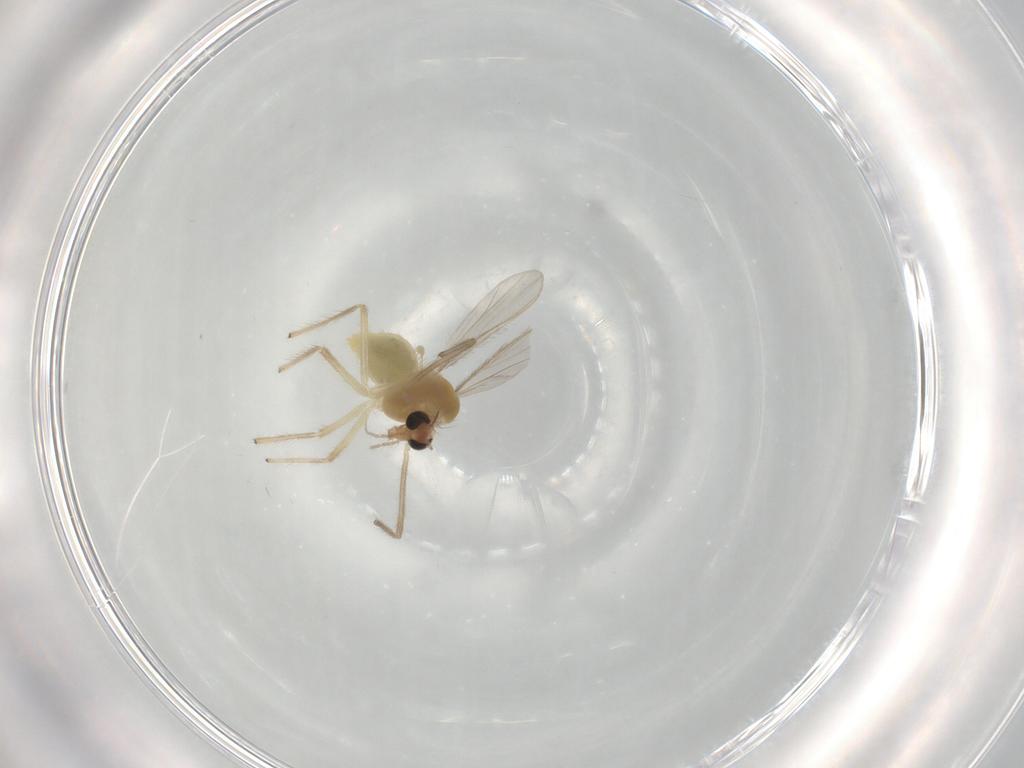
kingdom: Animalia
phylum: Arthropoda
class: Insecta
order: Diptera
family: Chironomidae
